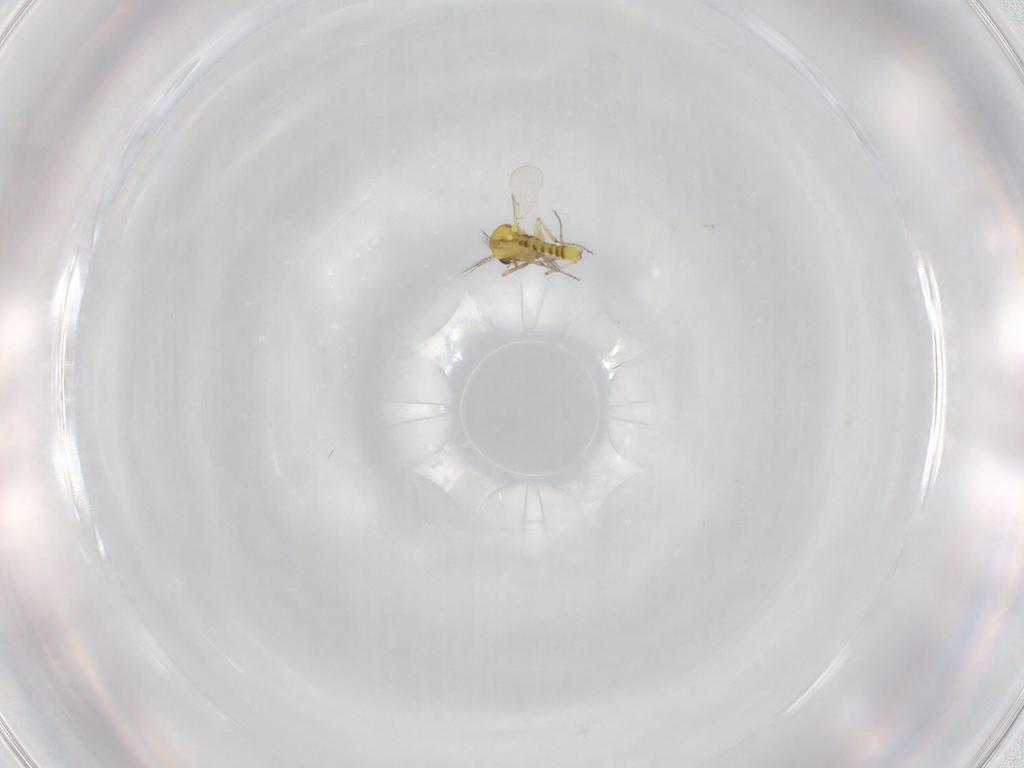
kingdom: Animalia
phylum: Arthropoda
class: Insecta
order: Diptera
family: Ceratopogonidae
